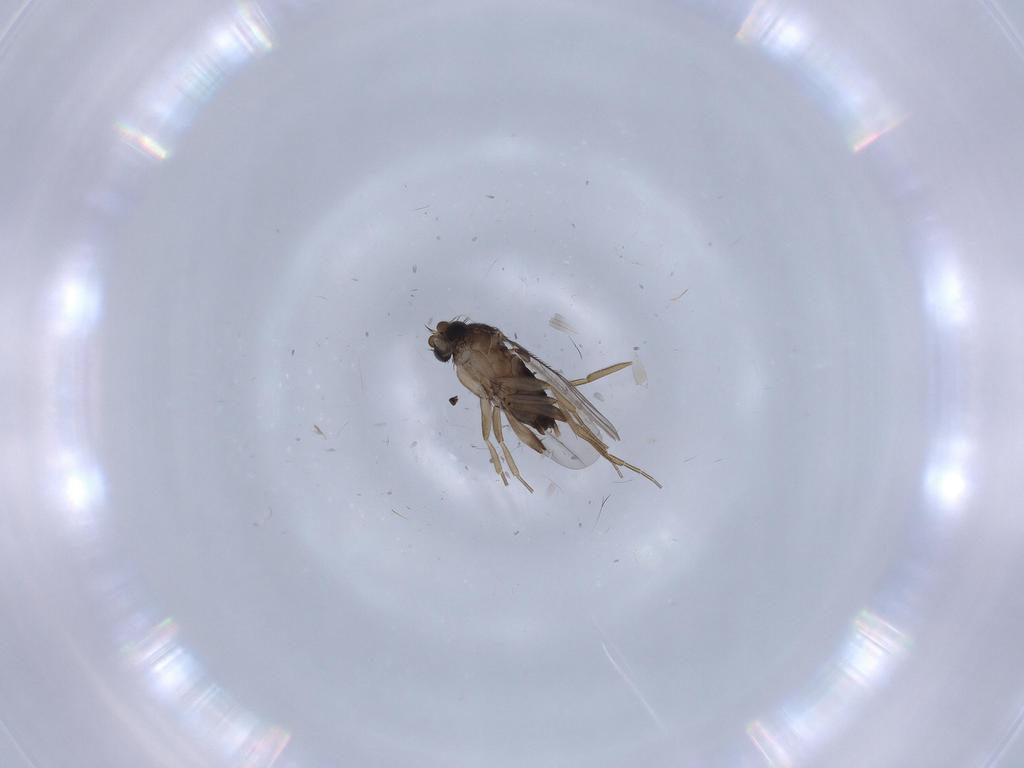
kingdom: Animalia
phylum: Arthropoda
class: Insecta
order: Diptera
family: Phoridae
